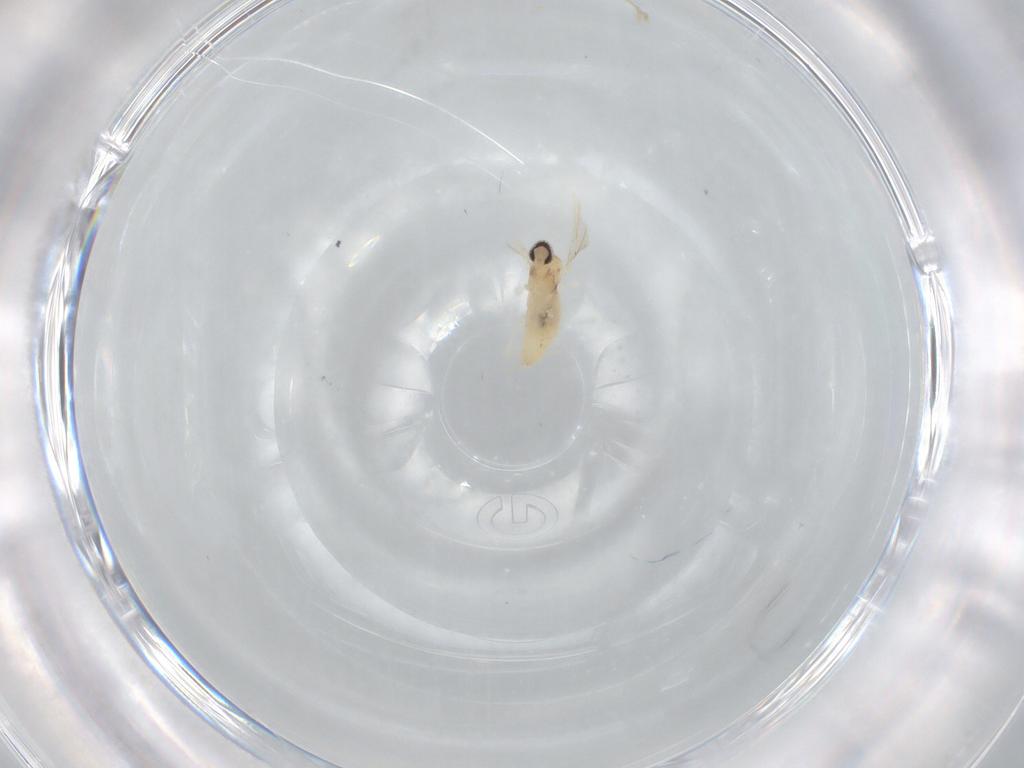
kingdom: Animalia
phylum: Arthropoda
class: Insecta
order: Diptera
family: Cecidomyiidae
